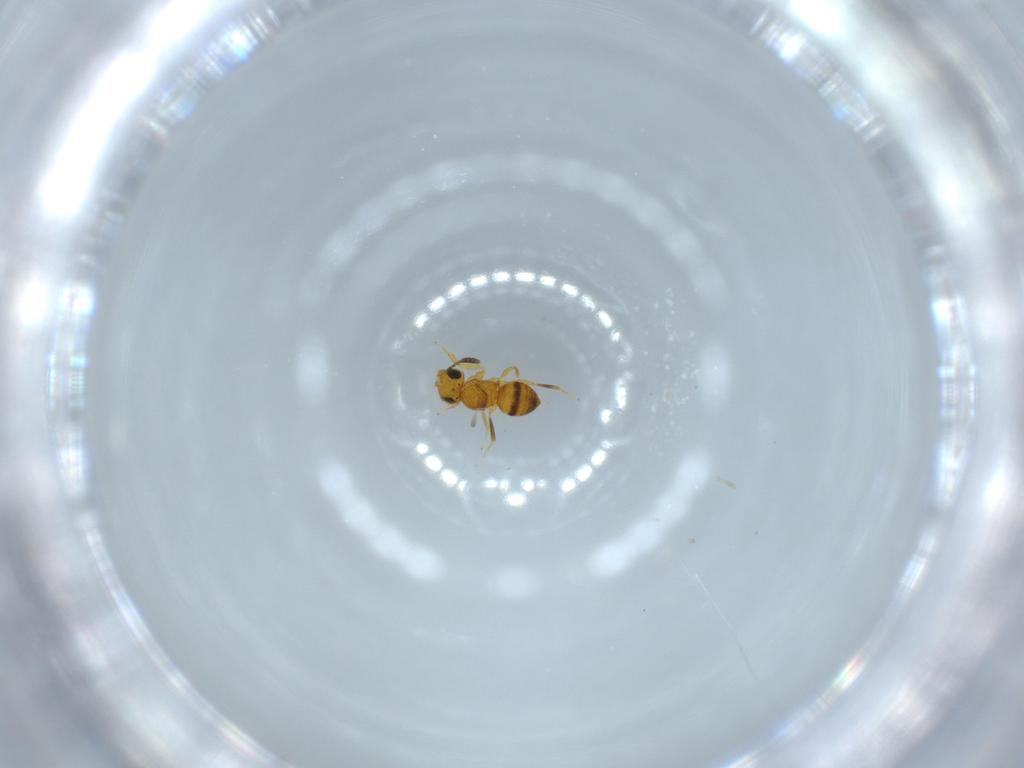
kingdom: Animalia
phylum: Arthropoda
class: Insecta
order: Hymenoptera
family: Scelionidae
